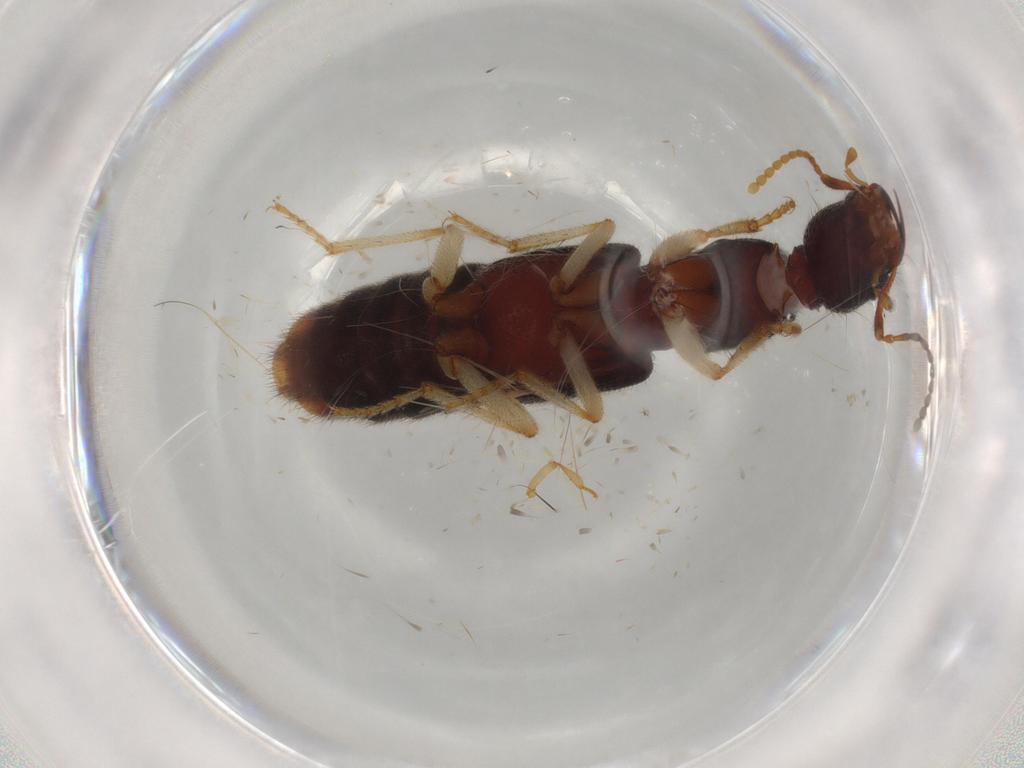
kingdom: Animalia
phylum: Arthropoda
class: Insecta
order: Coleoptera
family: Staphylinidae
